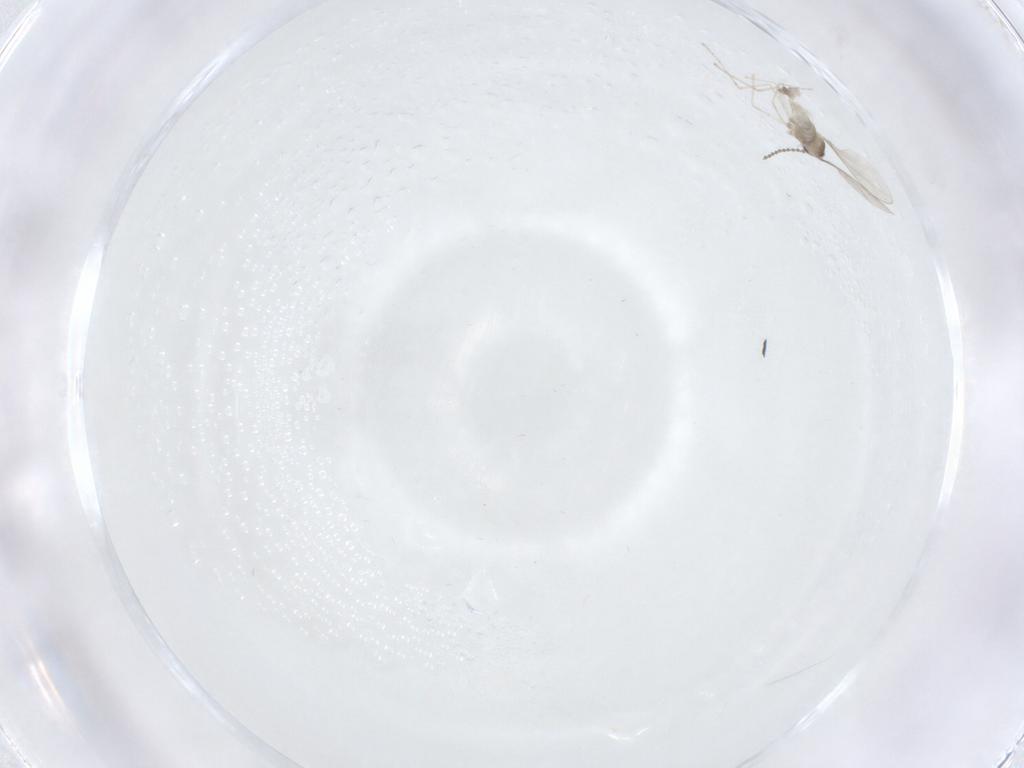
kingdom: Animalia
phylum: Arthropoda
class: Insecta
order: Diptera
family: Cecidomyiidae
